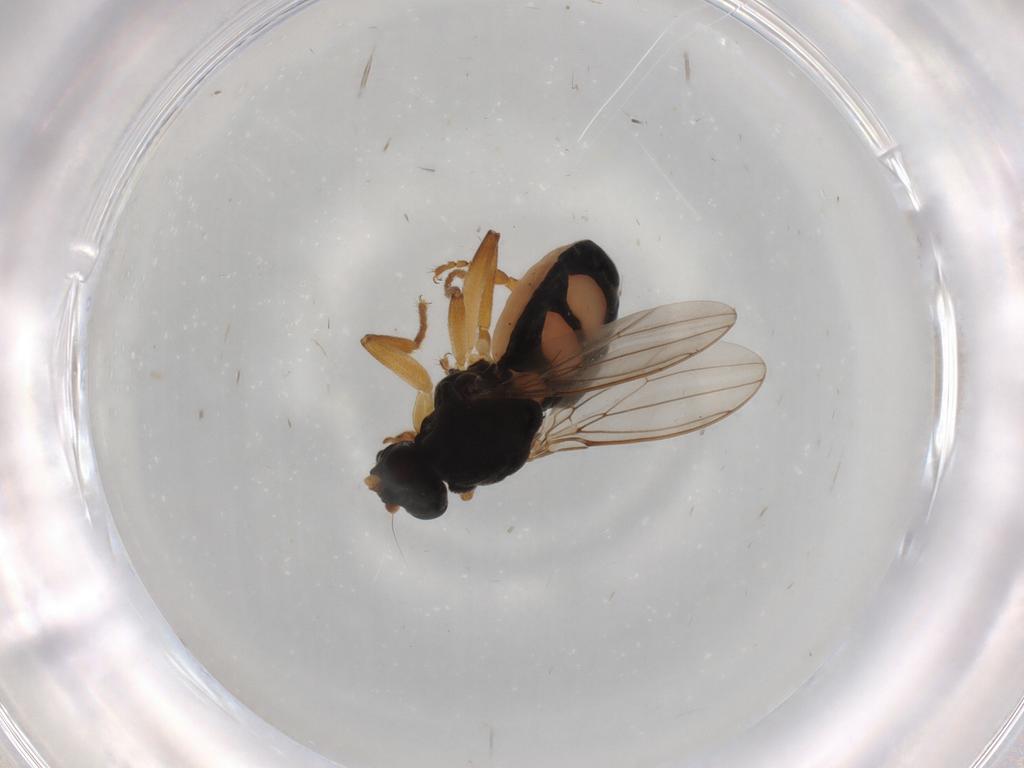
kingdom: Animalia
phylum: Arthropoda
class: Insecta
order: Diptera
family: Sphaeroceridae
